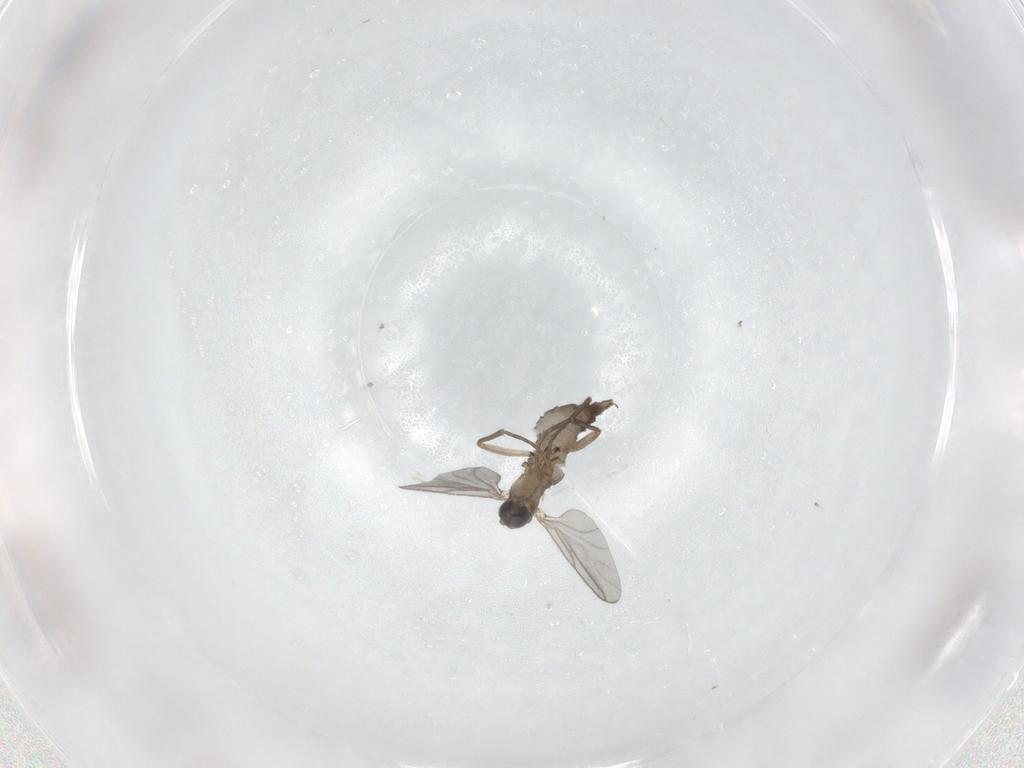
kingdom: Animalia
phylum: Arthropoda
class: Insecta
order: Diptera
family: Sciaridae
